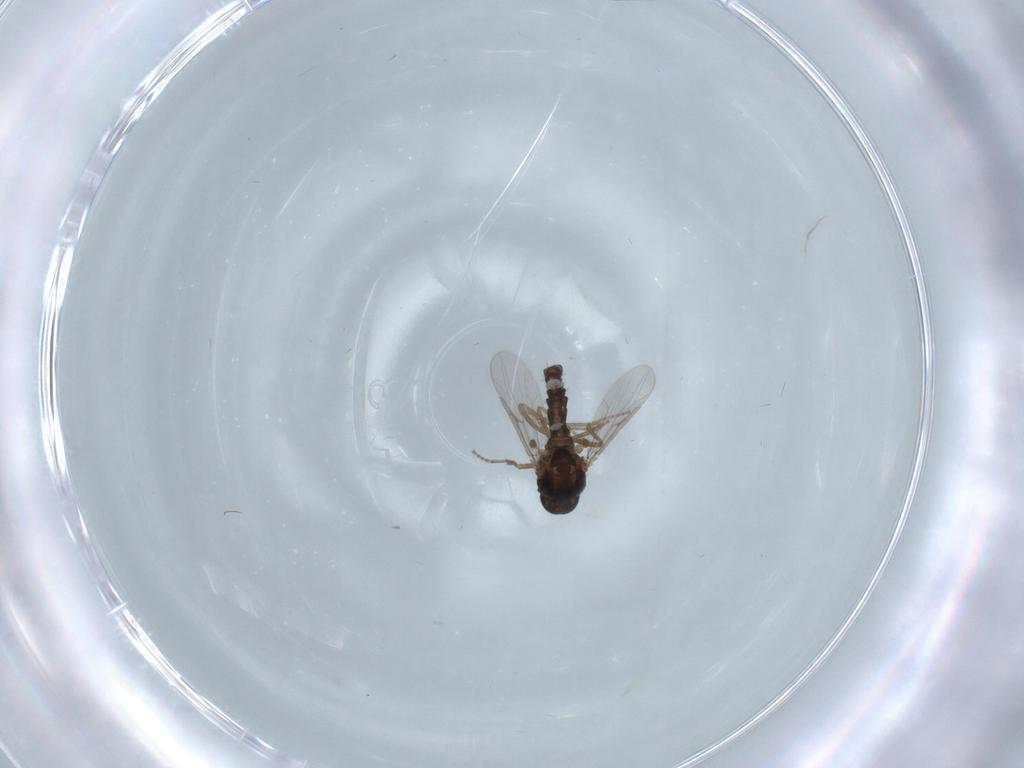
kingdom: Animalia
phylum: Arthropoda
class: Insecta
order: Diptera
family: Ceratopogonidae
